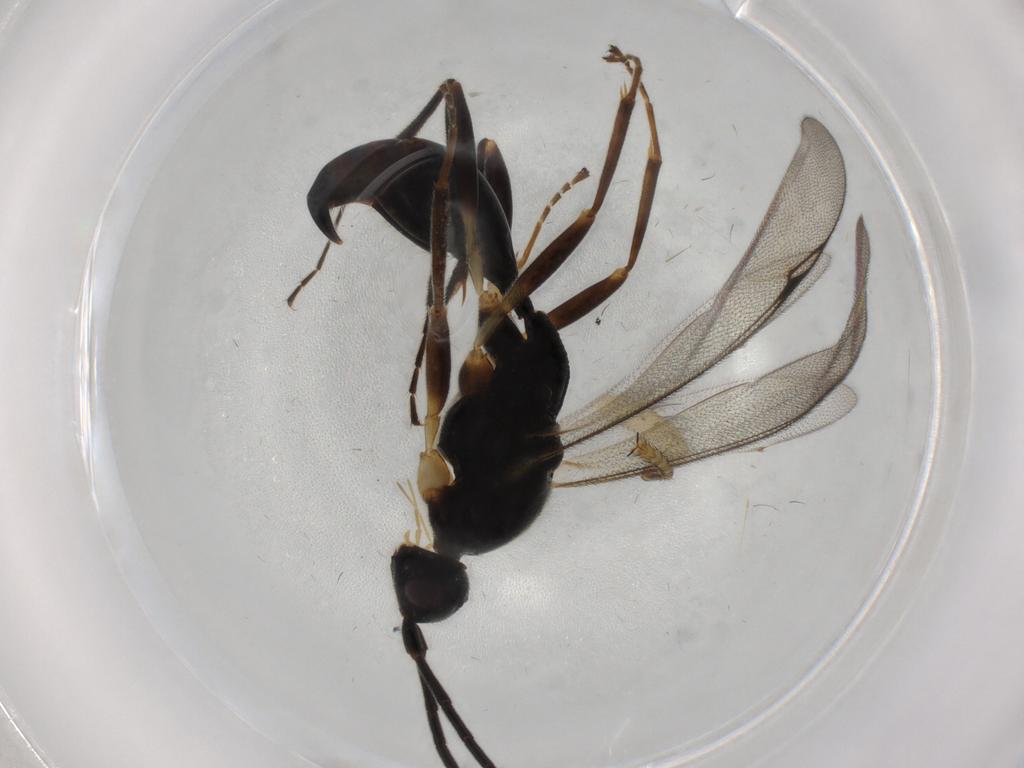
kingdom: Animalia
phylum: Arthropoda
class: Insecta
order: Hymenoptera
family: Proctotrupidae
